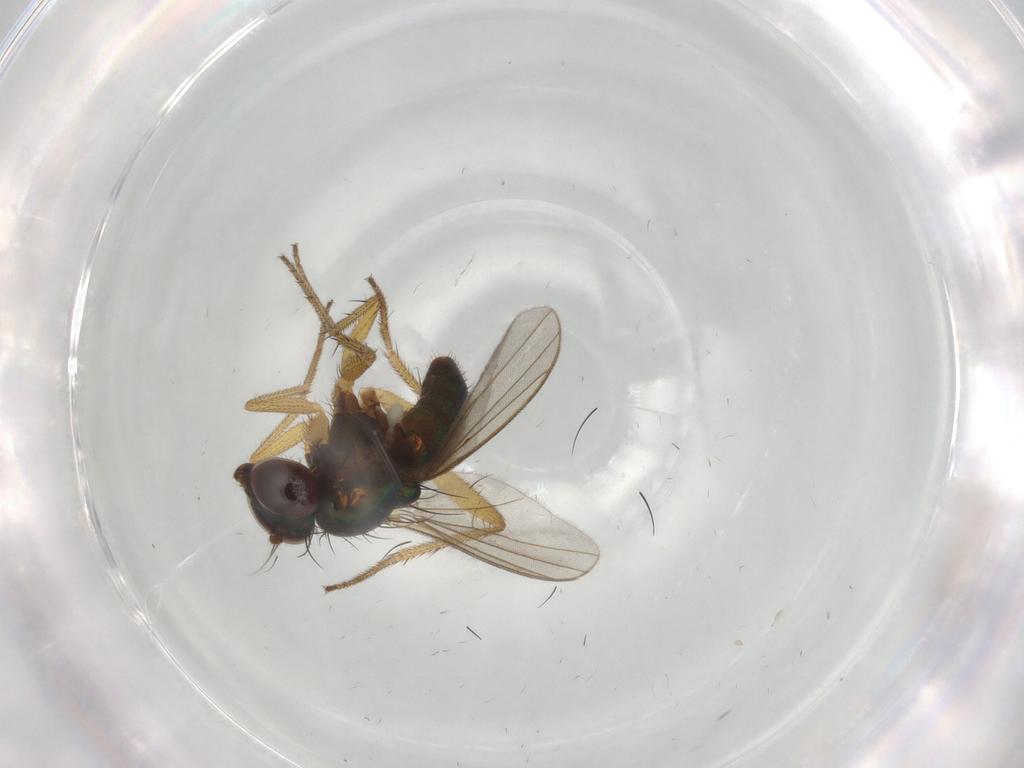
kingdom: Animalia
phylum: Arthropoda
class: Insecta
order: Diptera
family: Dolichopodidae
